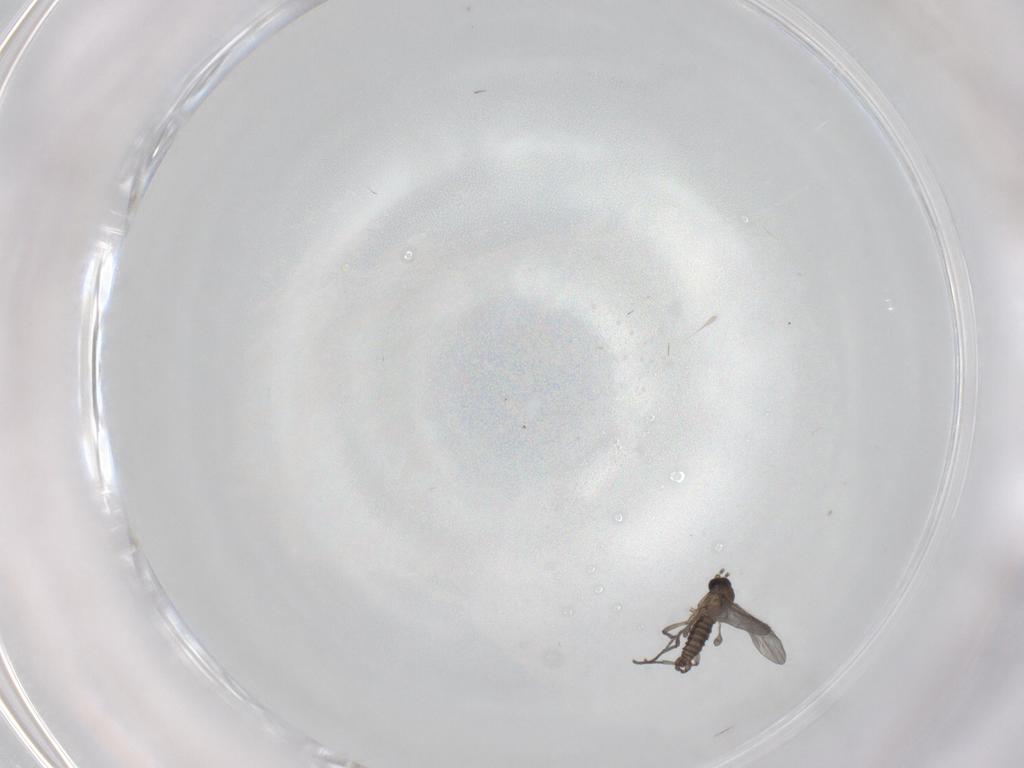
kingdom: Animalia
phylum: Arthropoda
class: Insecta
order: Diptera
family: Sciaridae
